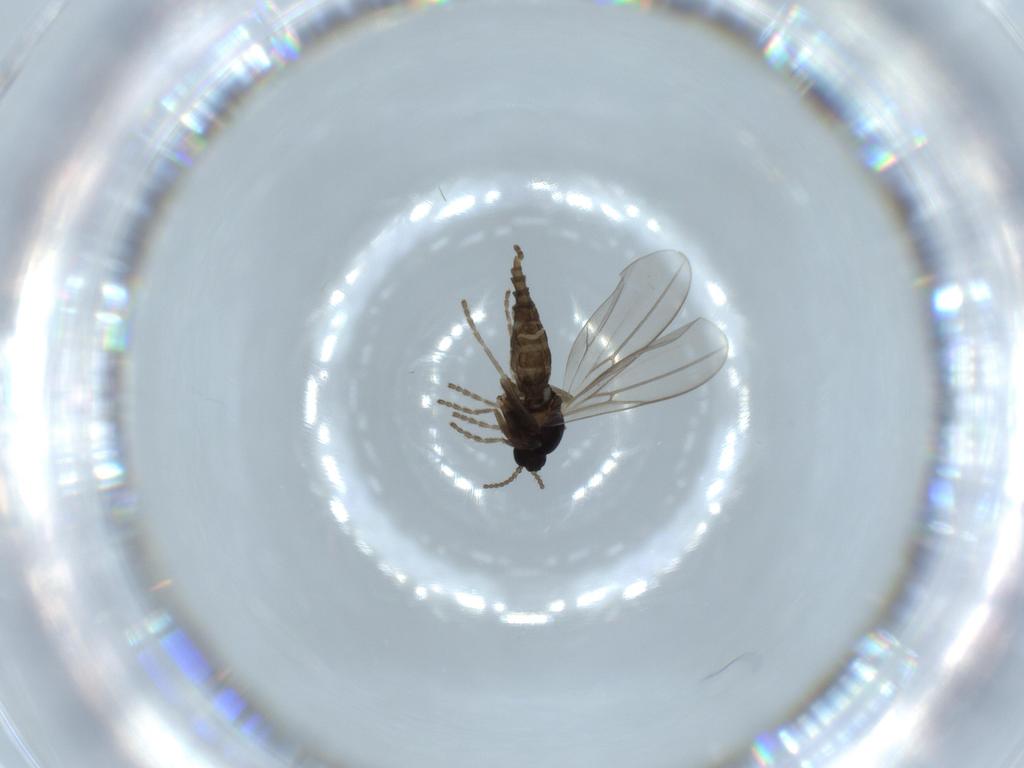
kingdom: Animalia
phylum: Arthropoda
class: Insecta
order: Diptera
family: Cecidomyiidae
